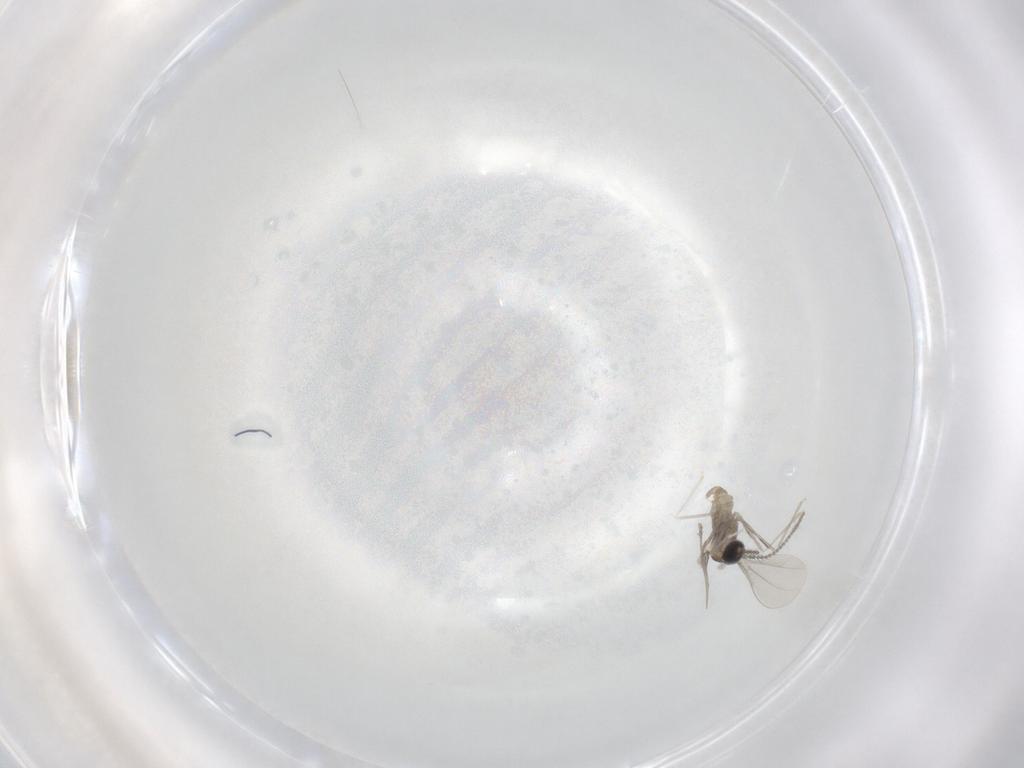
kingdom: Animalia
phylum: Arthropoda
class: Insecta
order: Diptera
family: Cecidomyiidae
